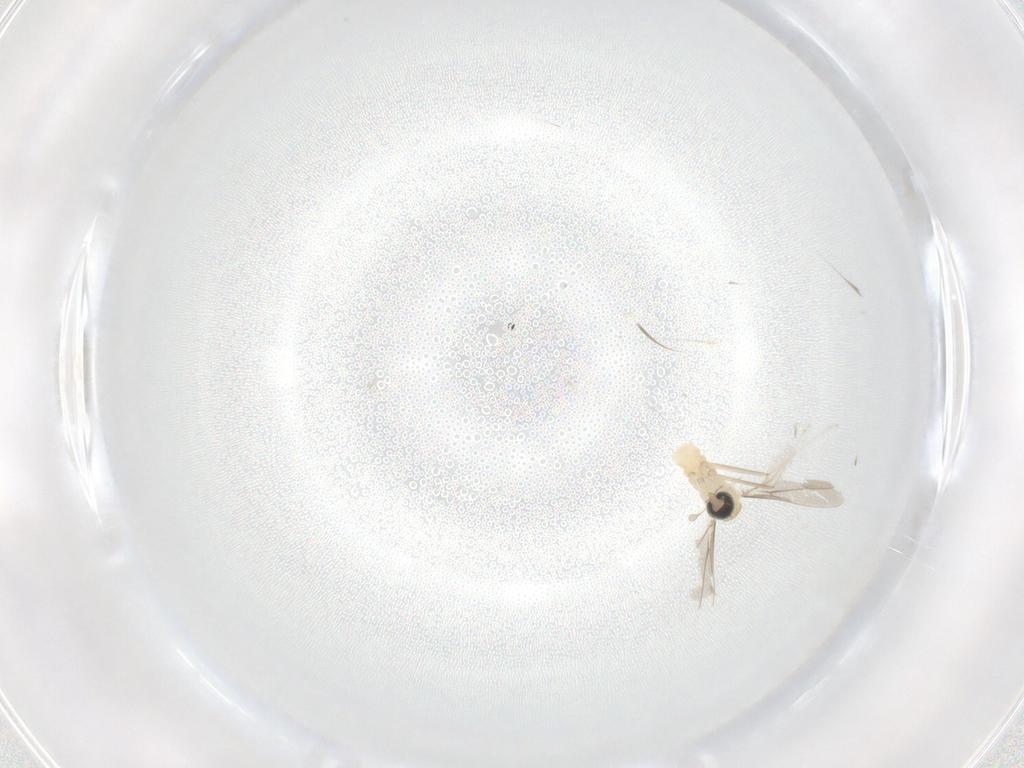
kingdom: Animalia
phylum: Arthropoda
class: Insecta
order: Diptera
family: Cecidomyiidae
